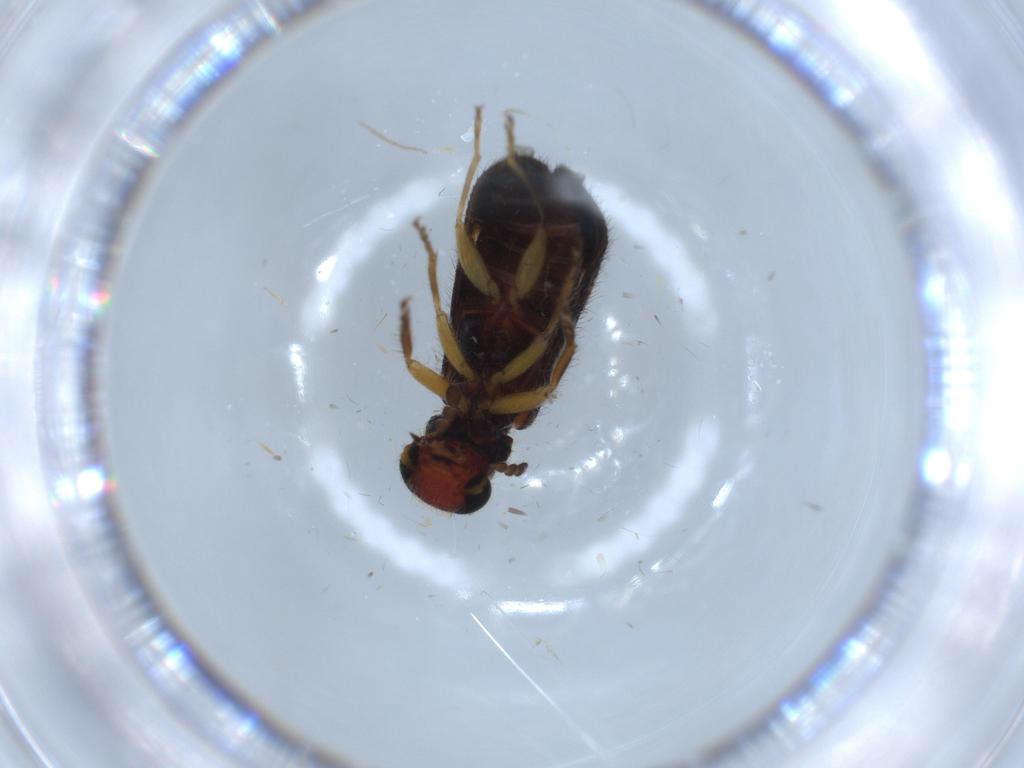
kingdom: Animalia
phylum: Arthropoda
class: Insecta
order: Coleoptera
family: Cleridae
